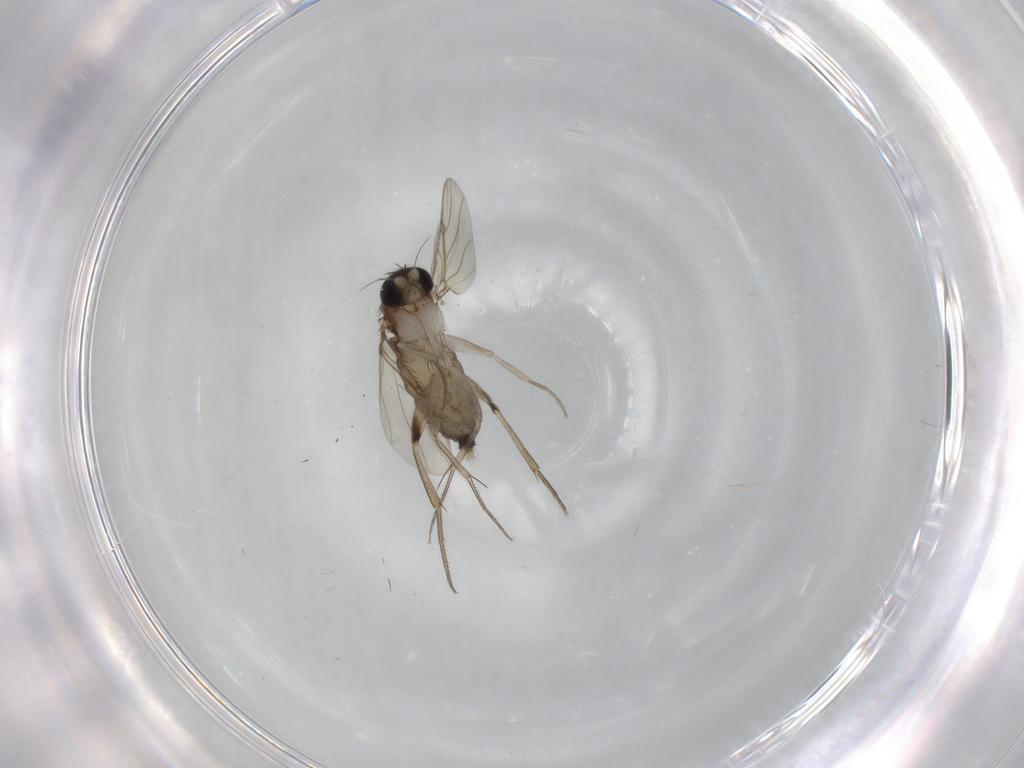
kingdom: Animalia
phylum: Arthropoda
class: Insecta
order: Diptera
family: Phoridae
